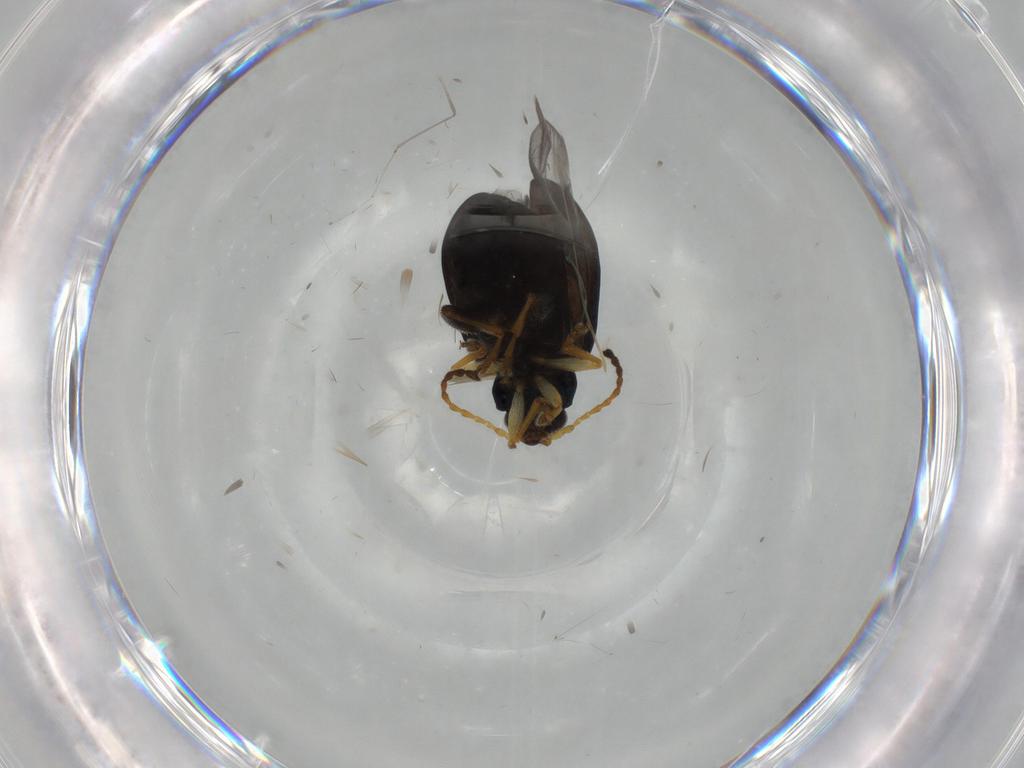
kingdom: Animalia
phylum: Arthropoda
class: Insecta
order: Coleoptera
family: Chrysomelidae
